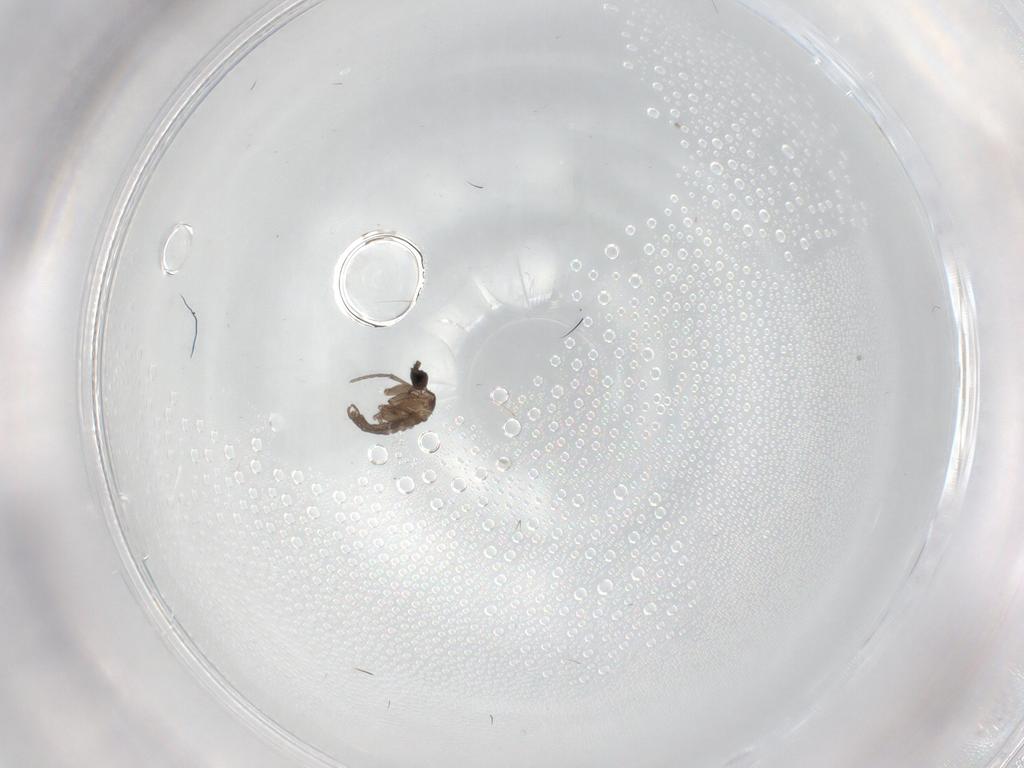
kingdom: Animalia
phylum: Arthropoda
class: Insecta
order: Diptera
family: Sciaridae
